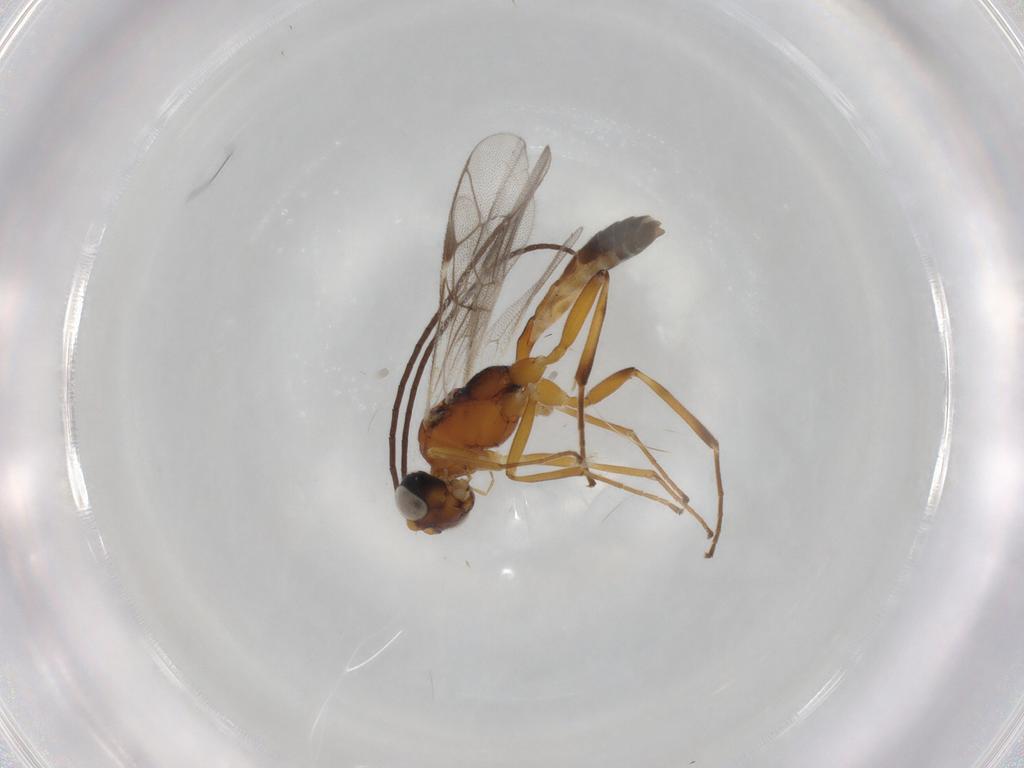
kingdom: Animalia
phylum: Arthropoda
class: Insecta
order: Hymenoptera
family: Ichneumonidae
